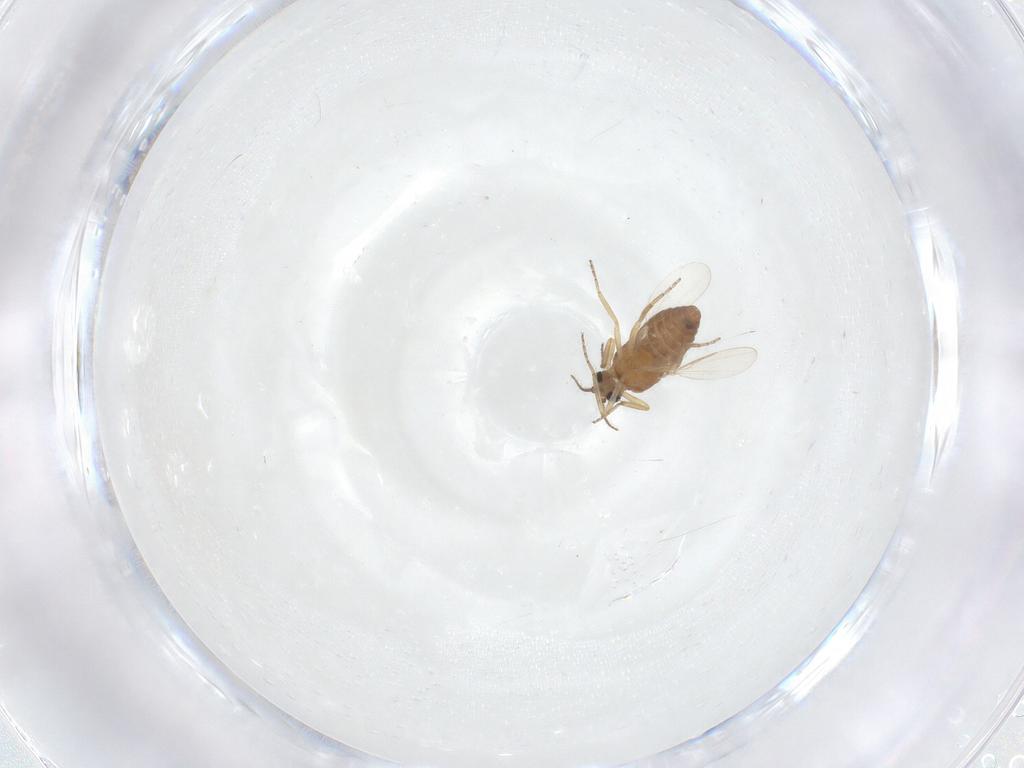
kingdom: Animalia
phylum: Arthropoda
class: Insecta
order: Diptera
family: Ceratopogonidae
